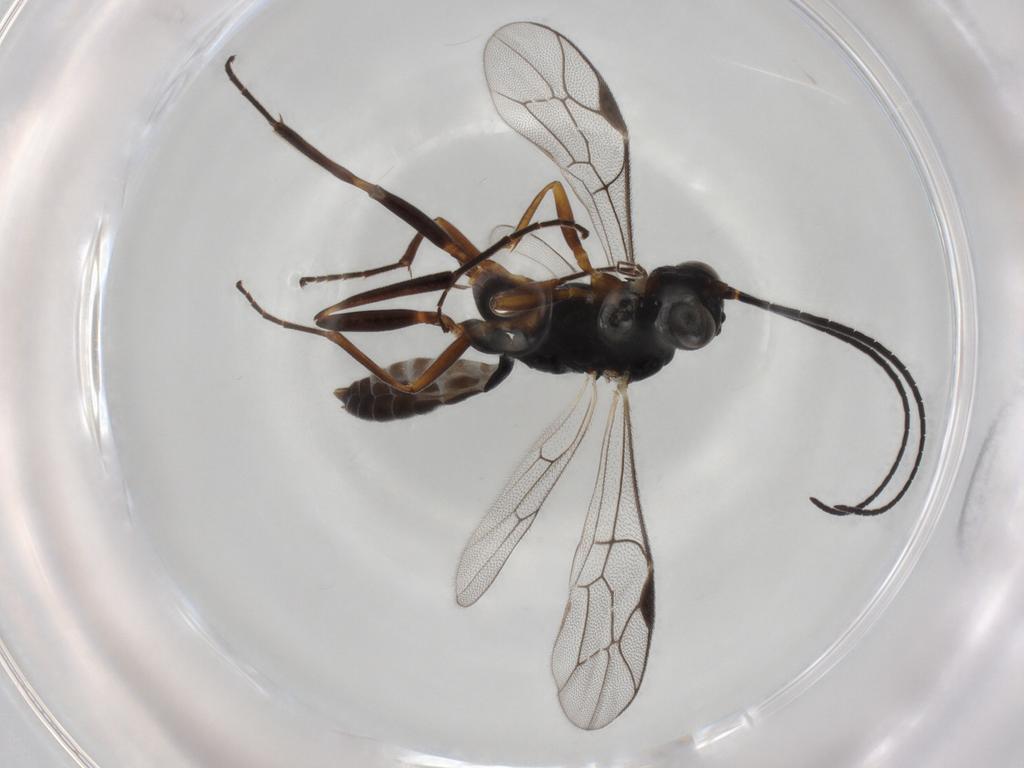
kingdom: Animalia
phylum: Arthropoda
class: Insecta
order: Hymenoptera
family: Ichneumonidae
